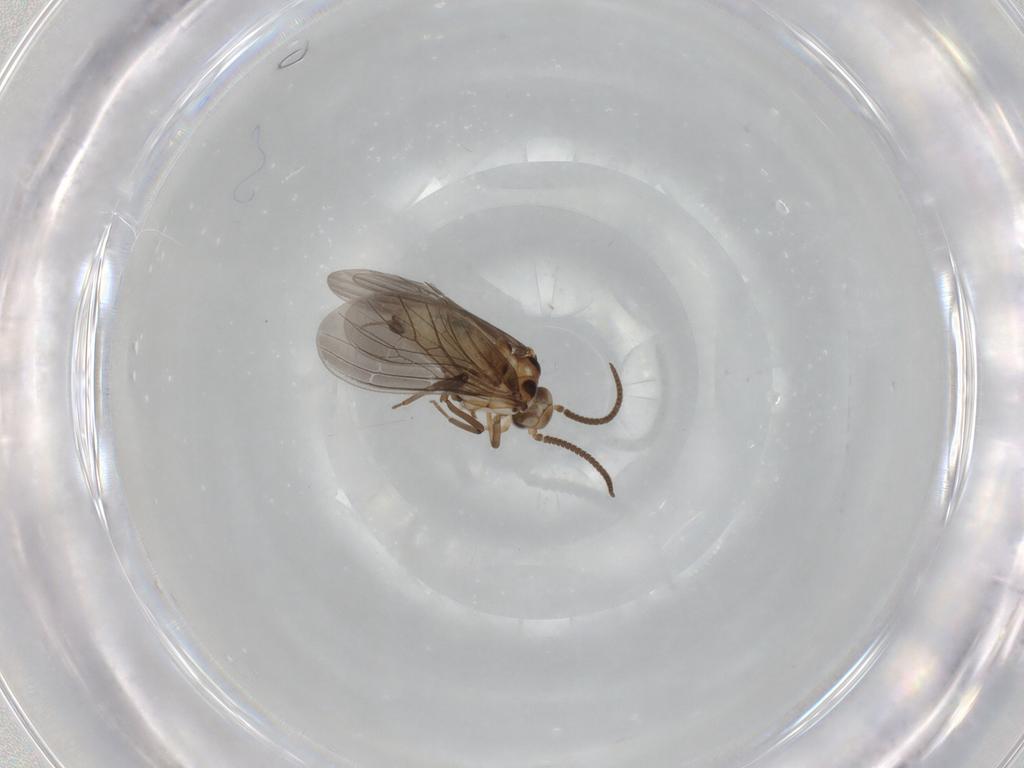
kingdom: Animalia
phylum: Arthropoda
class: Insecta
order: Neuroptera
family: Coniopterygidae
